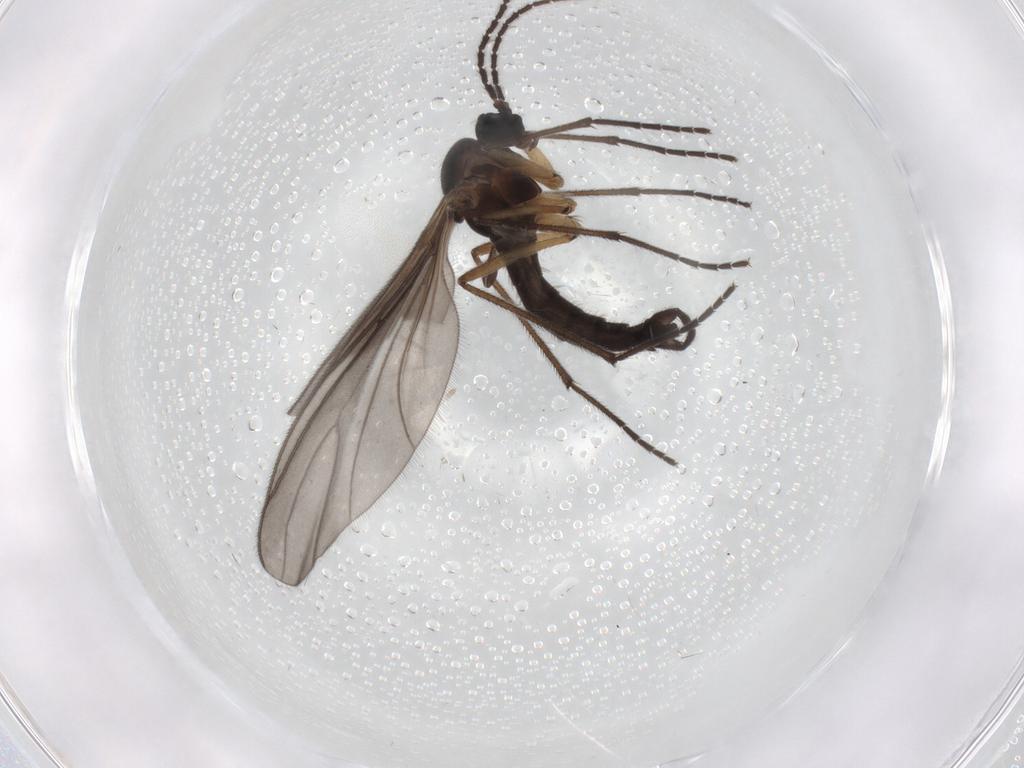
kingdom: Animalia
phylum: Arthropoda
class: Insecta
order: Diptera
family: Sciaridae
